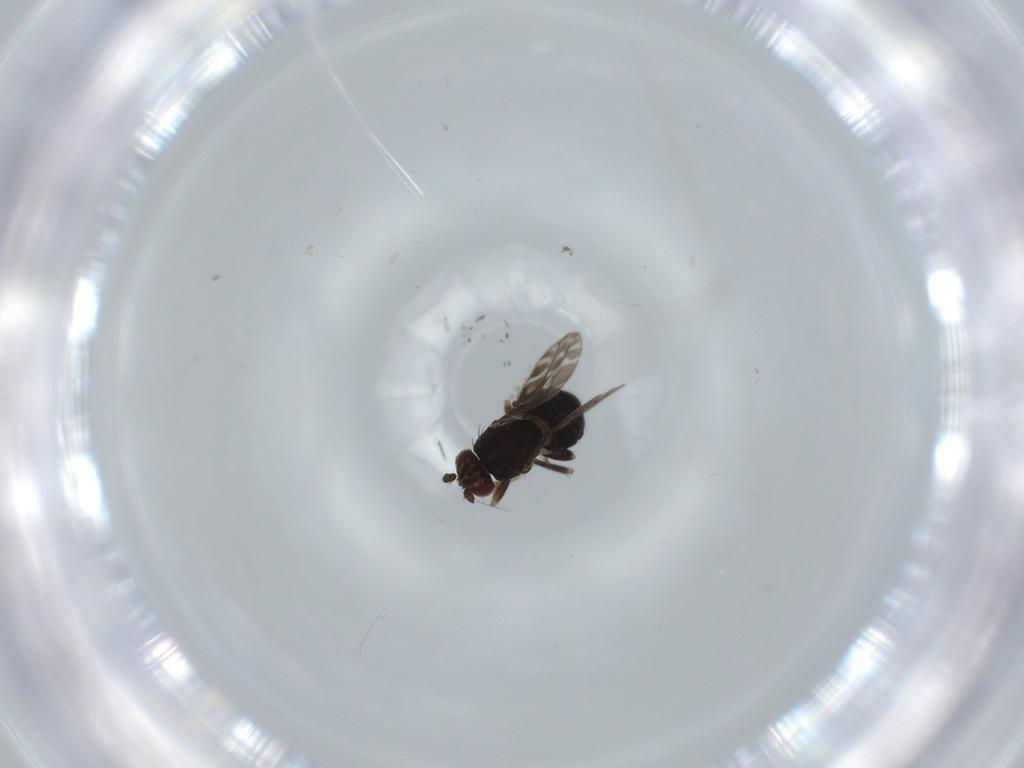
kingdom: Animalia
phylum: Arthropoda
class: Insecta
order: Diptera
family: Sphaeroceridae
